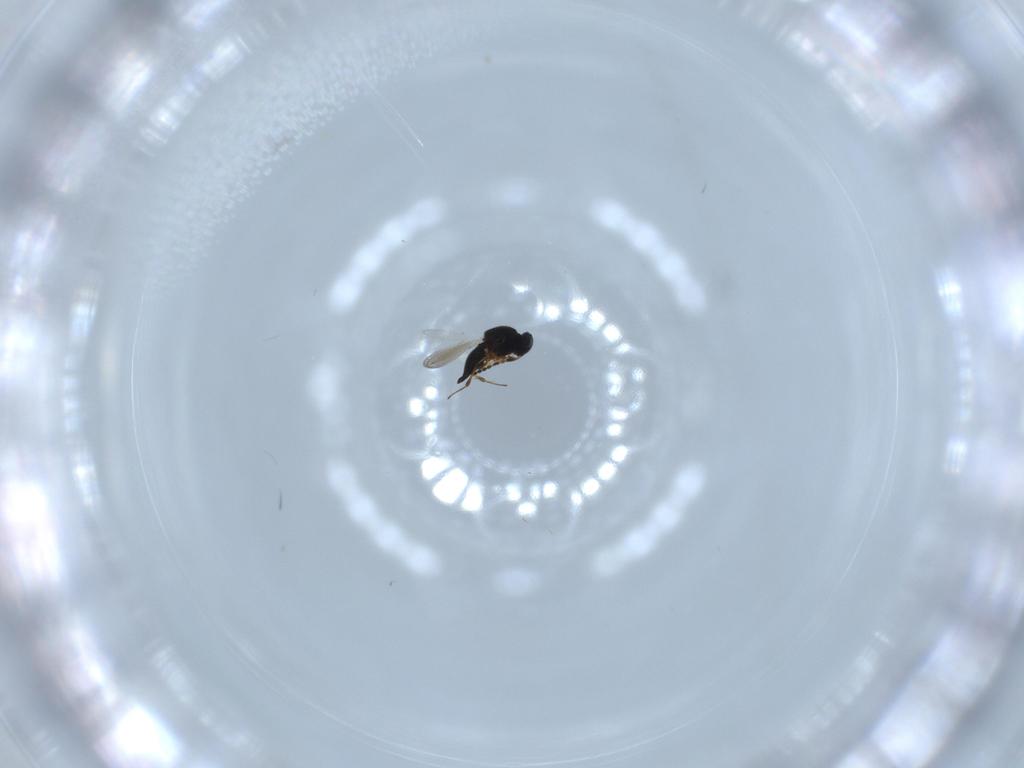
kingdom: Animalia
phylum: Arthropoda
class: Insecta
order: Hymenoptera
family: Platygastridae
